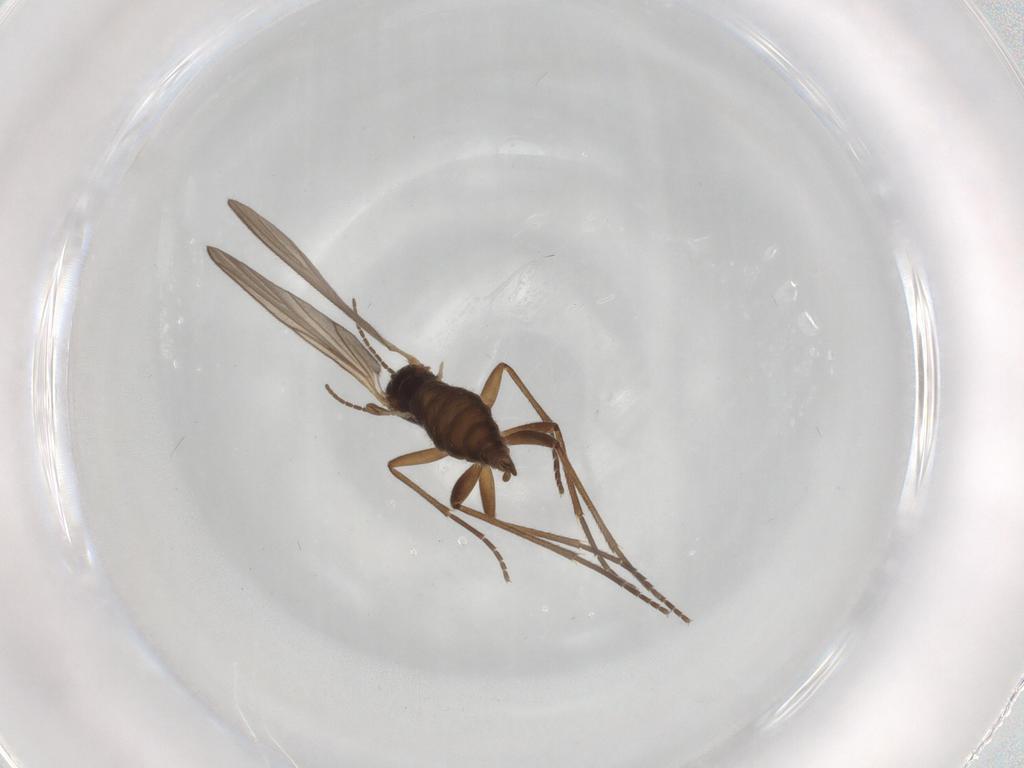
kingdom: Animalia
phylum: Arthropoda
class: Insecta
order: Diptera
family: Sciaridae
